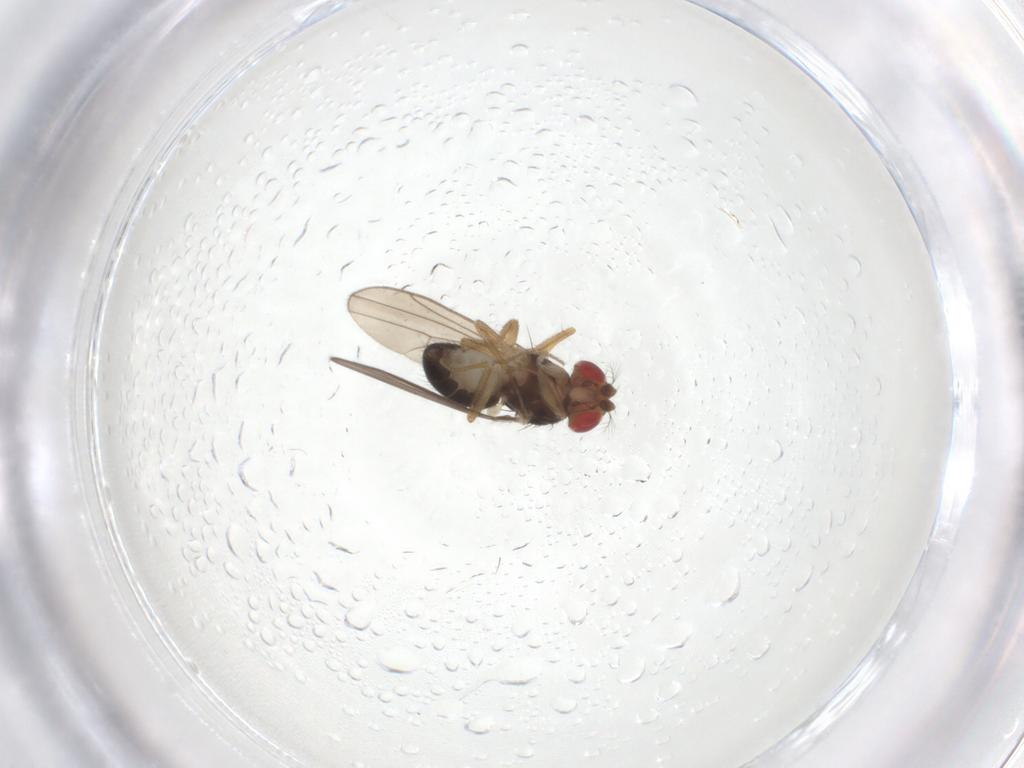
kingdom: Animalia
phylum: Arthropoda
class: Insecta
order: Diptera
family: Drosophilidae
